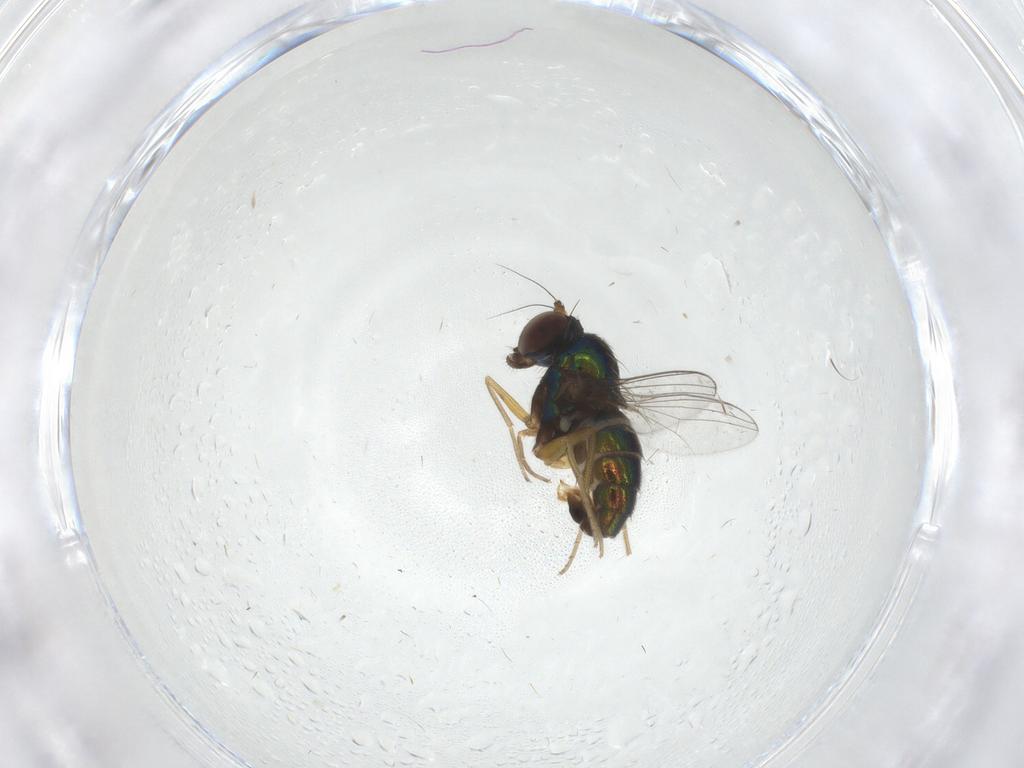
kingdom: Animalia
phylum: Arthropoda
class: Insecta
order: Diptera
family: Dolichopodidae
